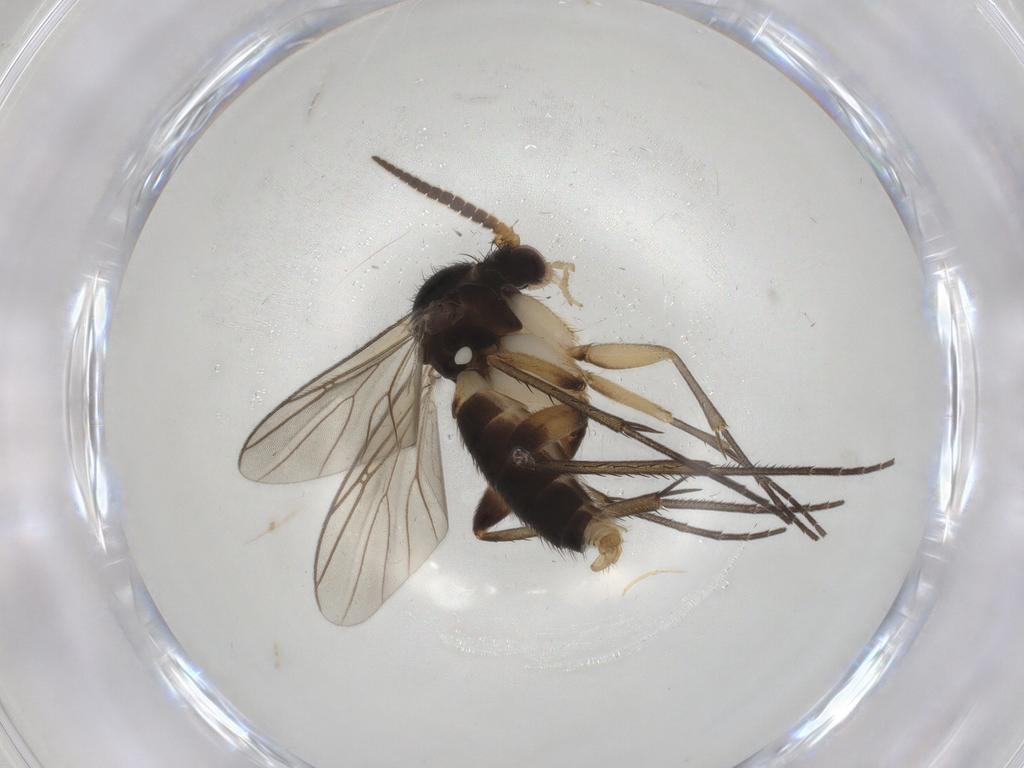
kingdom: Animalia
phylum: Arthropoda
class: Insecta
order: Diptera
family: Mycetophilidae
